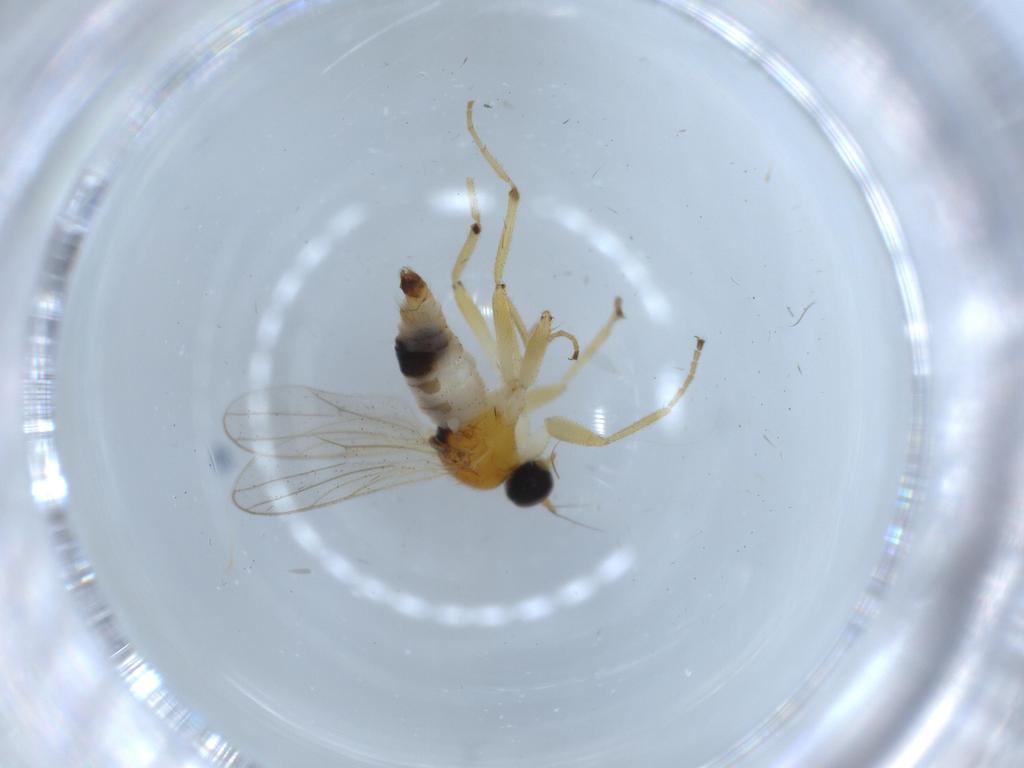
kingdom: Animalia
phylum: Arthropoda
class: Insecta
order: Diptera
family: Hybotidae
